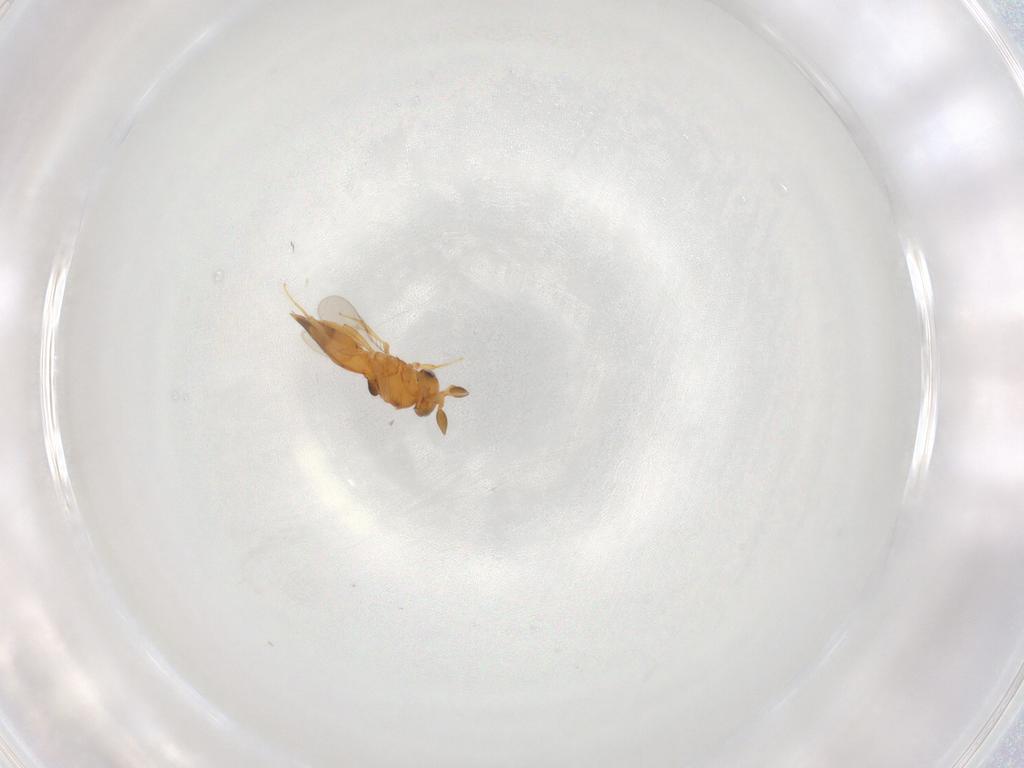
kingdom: Animalia
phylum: Arthropoda
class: Insecta
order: Hymenoptera
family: Scelionidae
